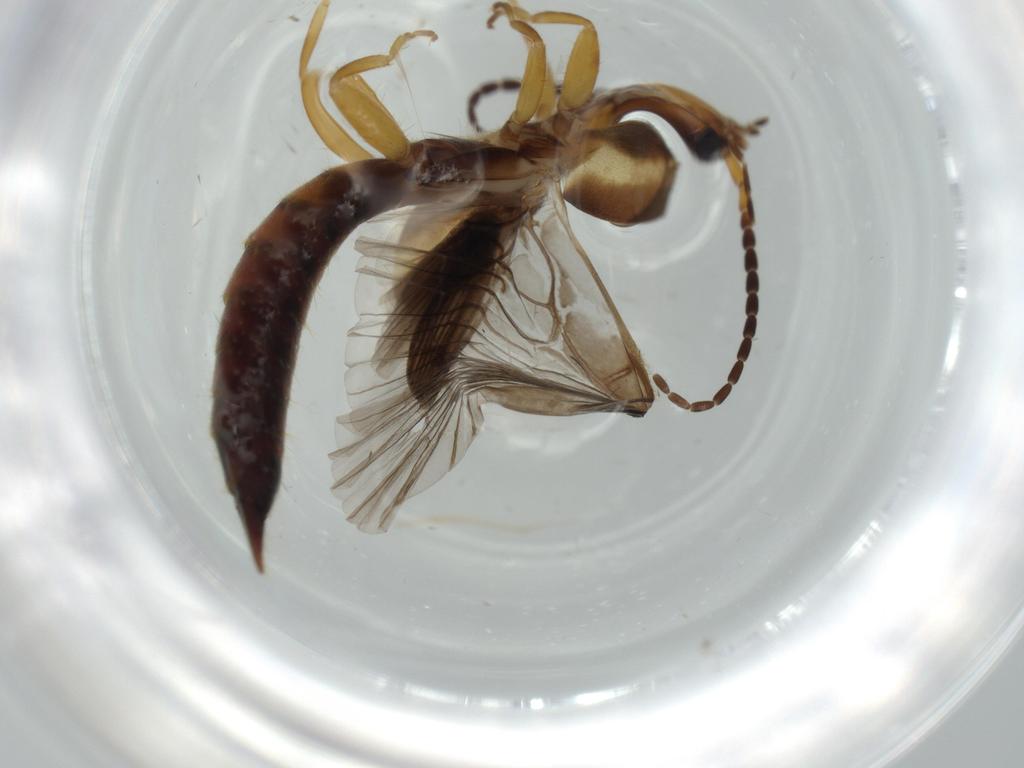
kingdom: Animalia
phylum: Arthropoda
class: Insecta
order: Dermaptera
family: Forficulidae
